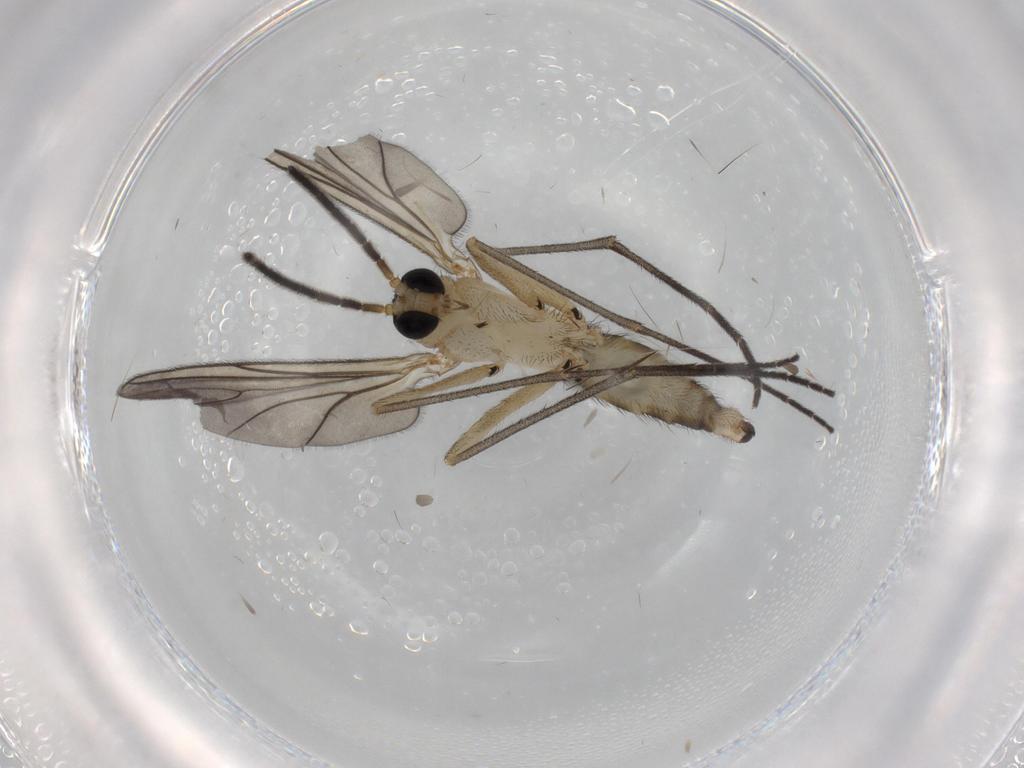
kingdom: Animalia
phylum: Arthropoda
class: Insecta
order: Diptera
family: Sciaridae
